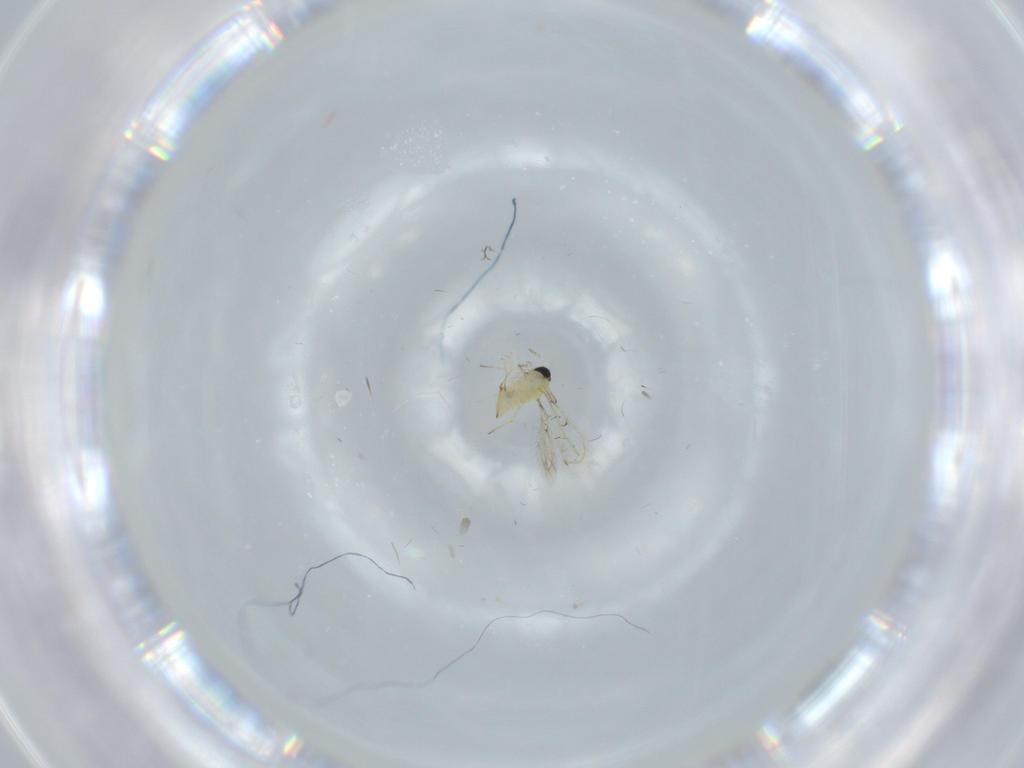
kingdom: Animalia
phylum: Arthropoda
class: Insecta
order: Hymenoptera
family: Trichogrammatidae
